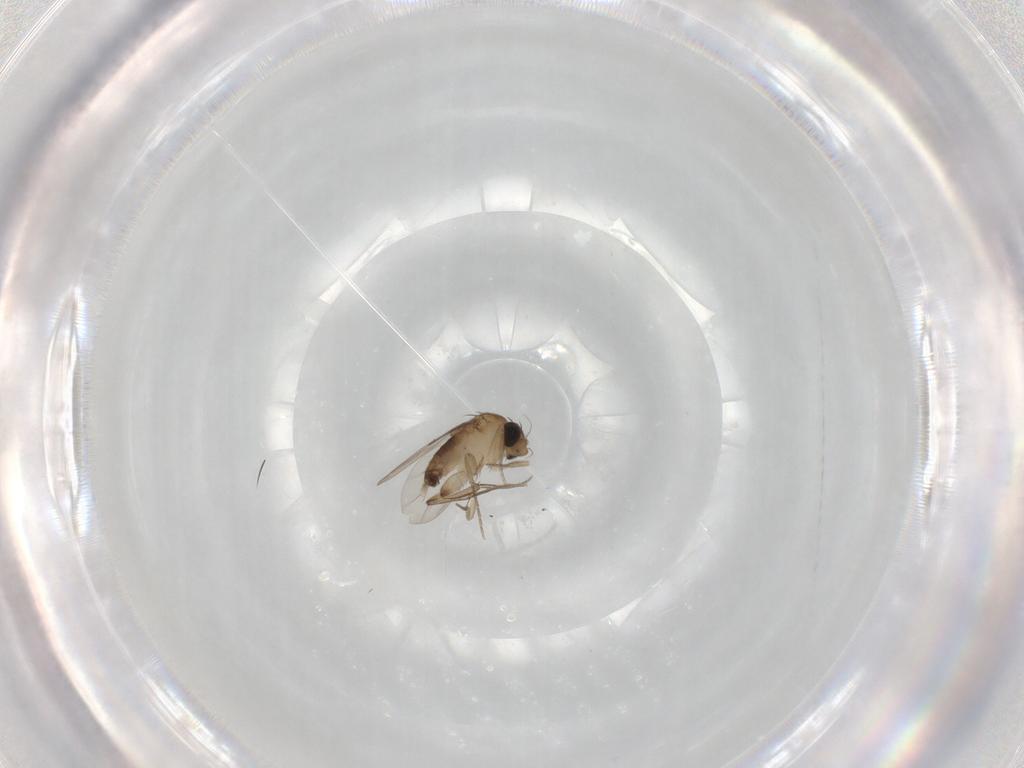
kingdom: Animalia
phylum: Arthropoda
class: Insecta
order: Diptera
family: Phoridae
